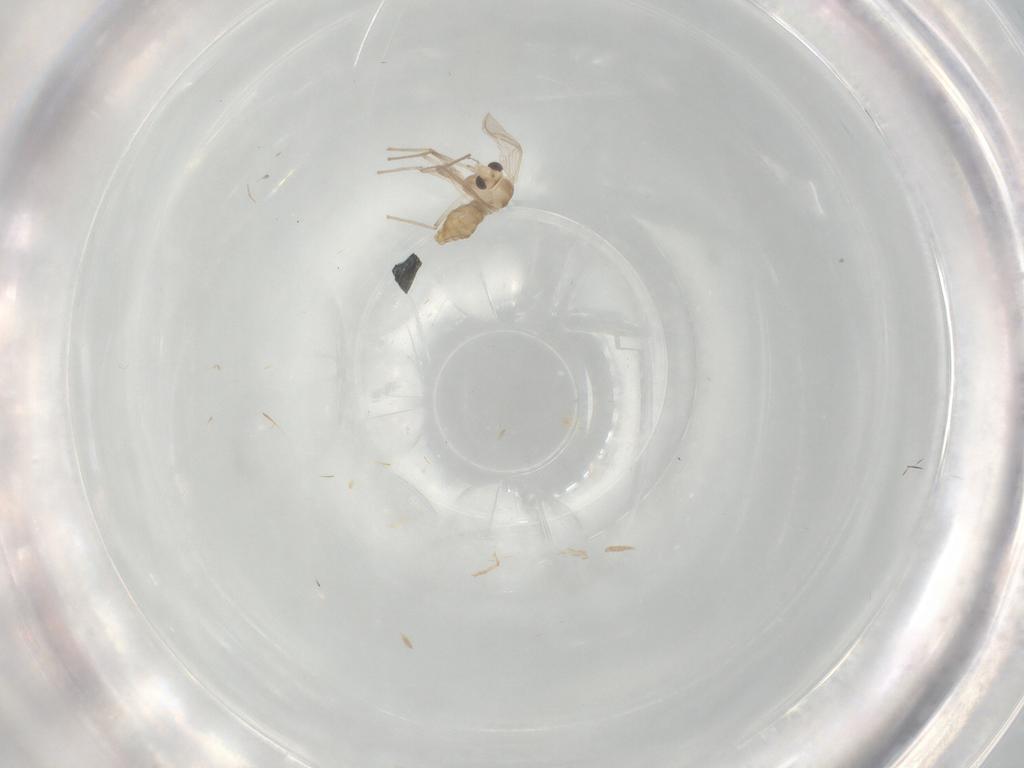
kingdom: Animalia
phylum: Arthropoda
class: Insecta
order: Diptera
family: Chironomidae
